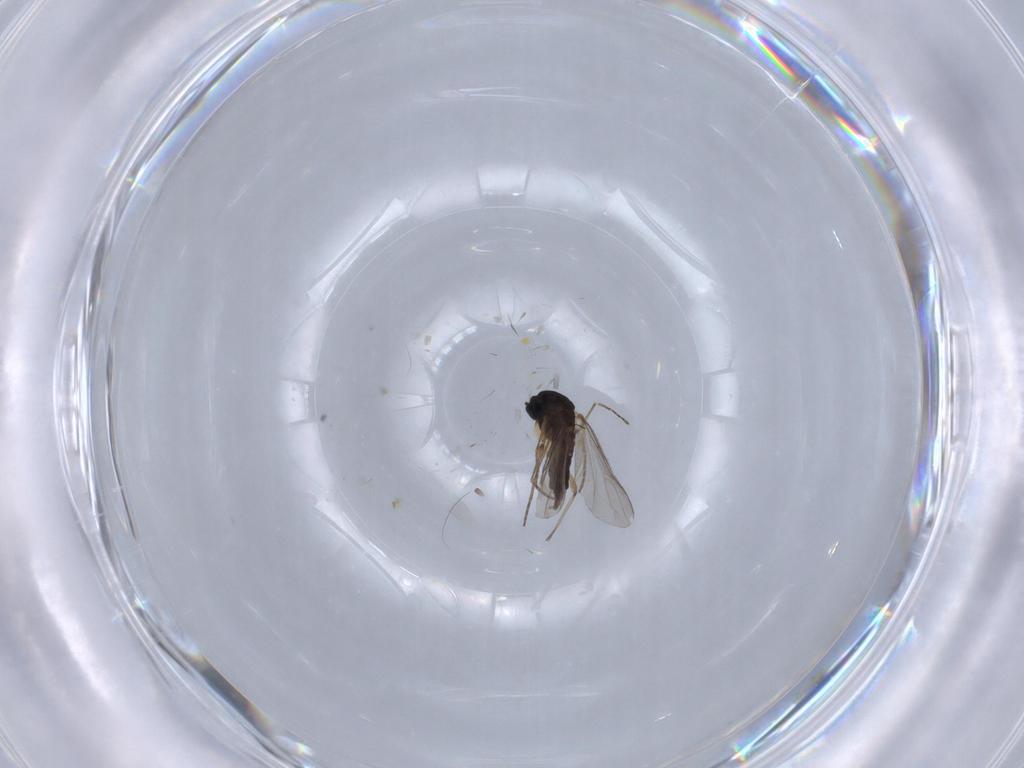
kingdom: Animalia
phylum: Arthropoda
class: Insecta
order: Diptera
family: Sciaridae
